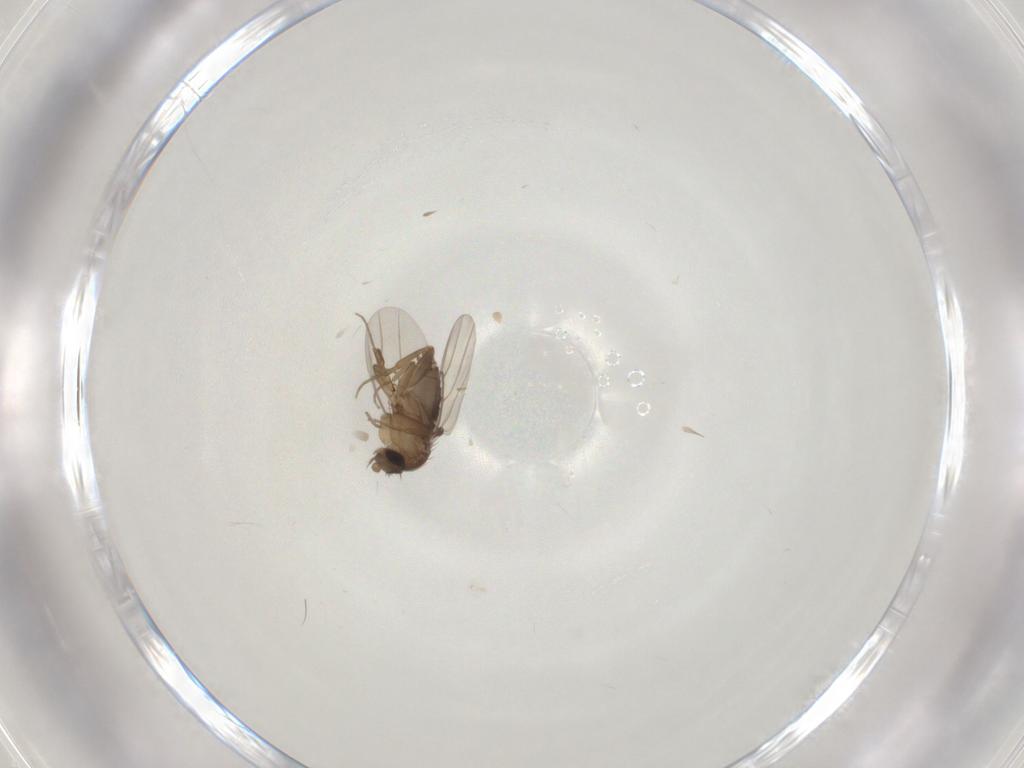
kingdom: Animalia
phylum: Arthropoda
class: Insecta
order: Diptera
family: Phoridae
